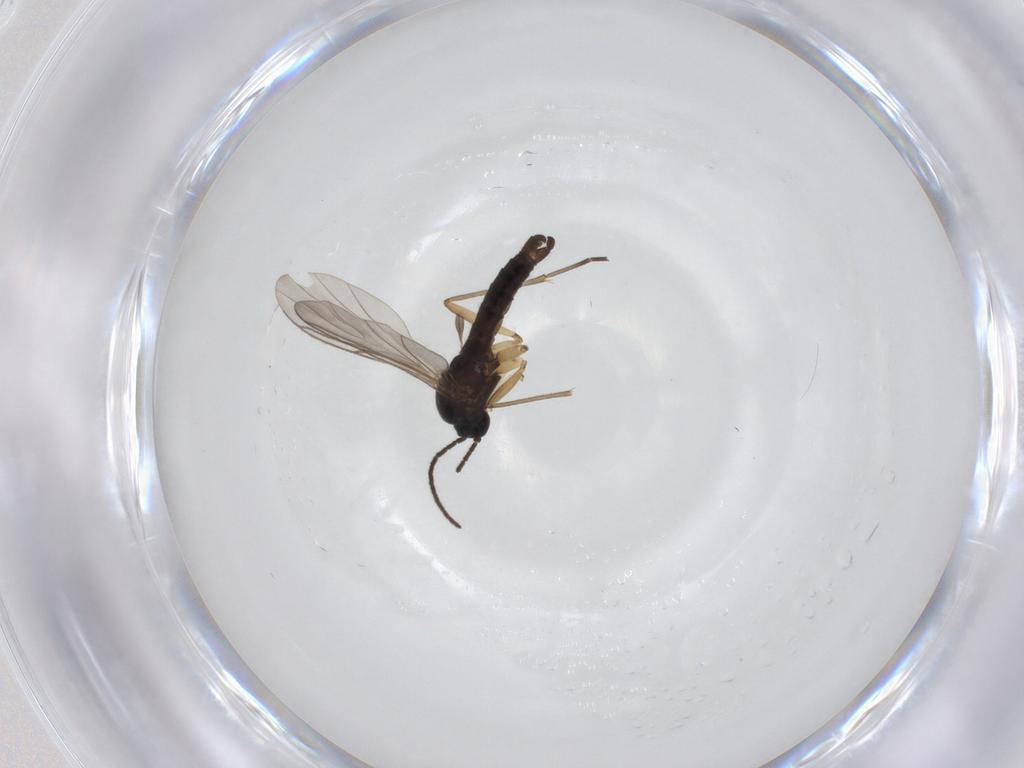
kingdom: Animalia
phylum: Arthropoda
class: Insecta
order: Diptera
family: Sciaridae
